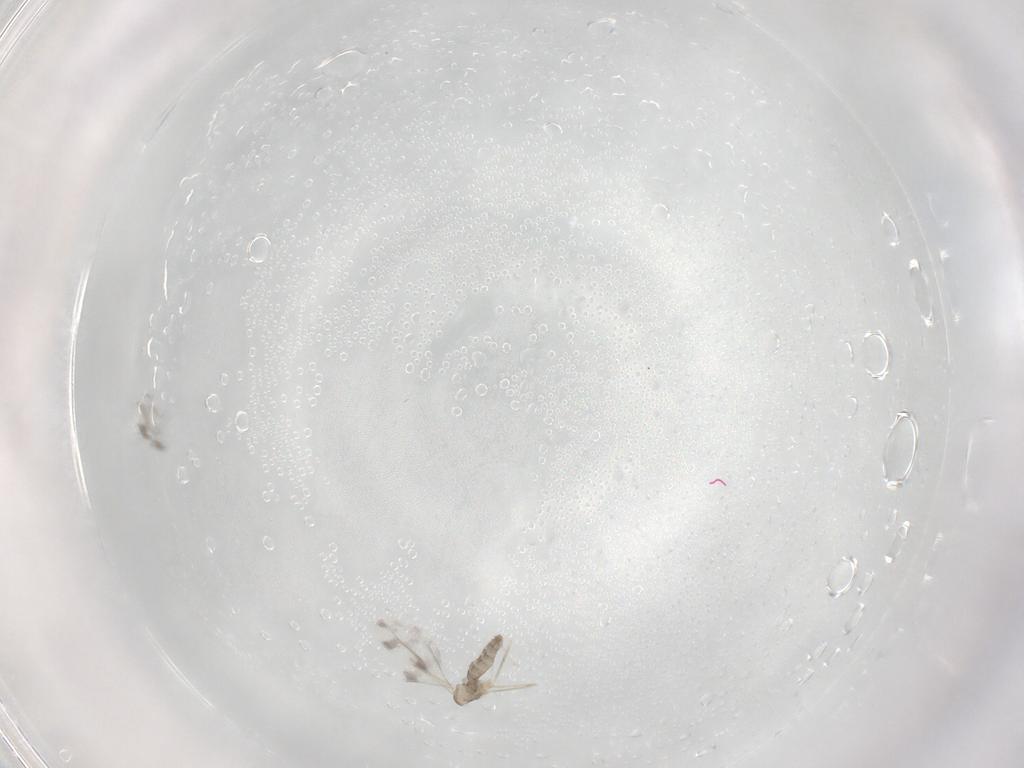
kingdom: Animalia
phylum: Arthropoda
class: Insecta
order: Diptera
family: Cecidomyiidae
